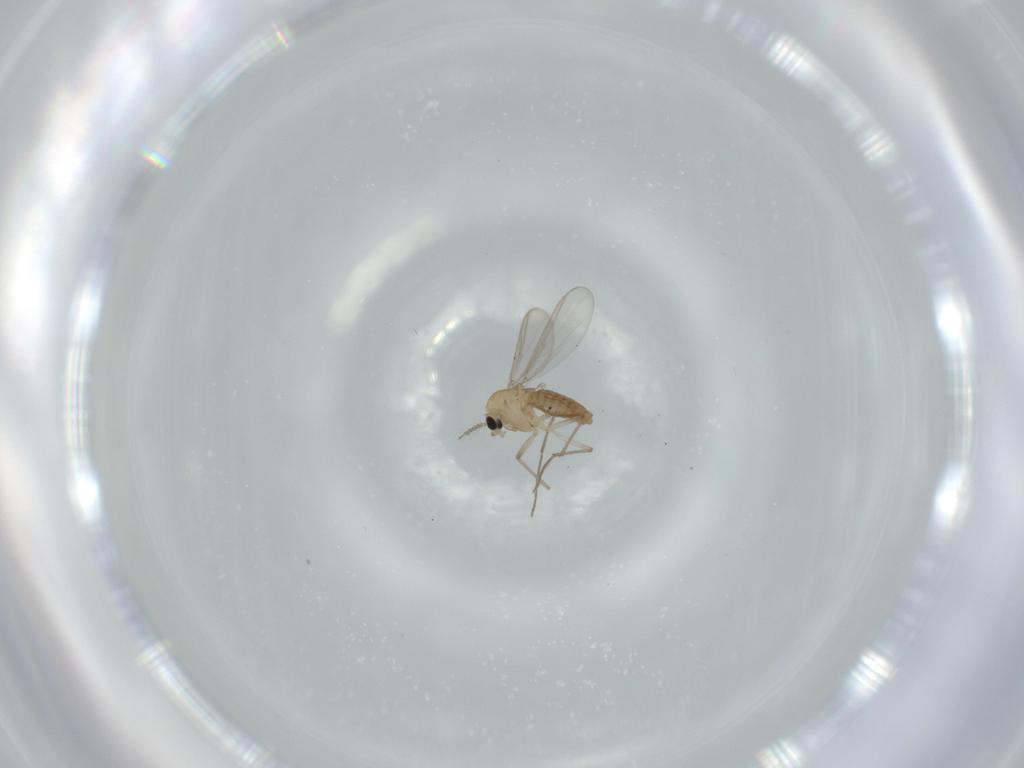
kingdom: Animalia
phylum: Arthropoda
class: Insecta
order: Diptera
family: Chironomidae
